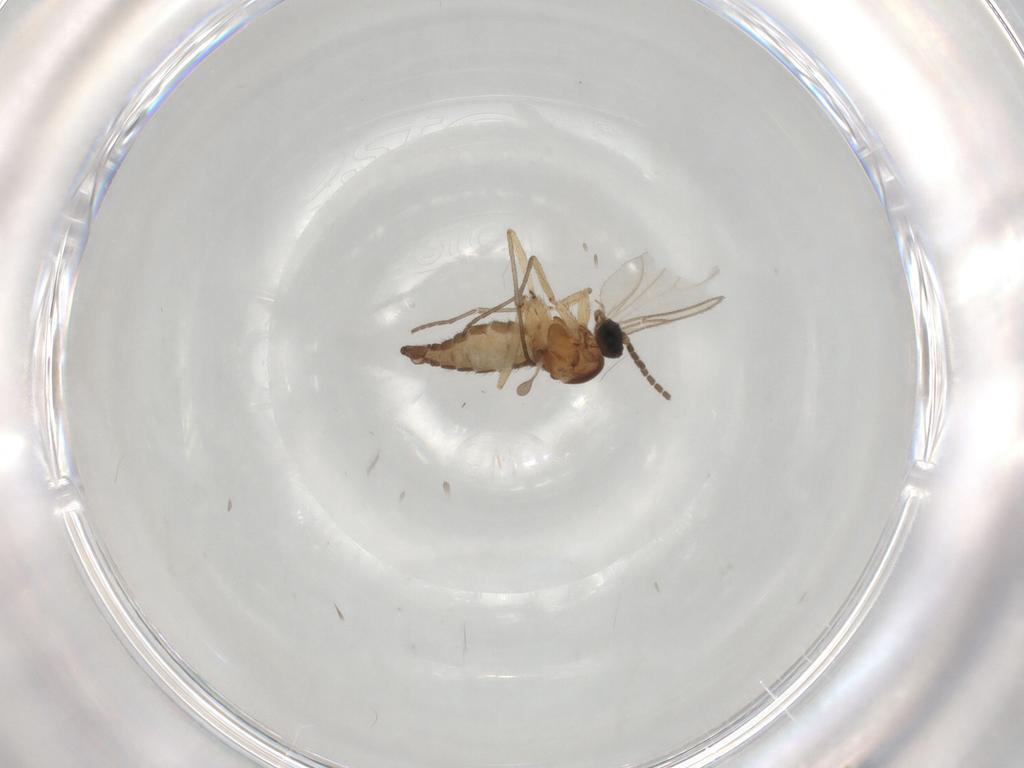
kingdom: Animalia
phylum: Arthropoda
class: Insecta
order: Diptera
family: Sciaridae
